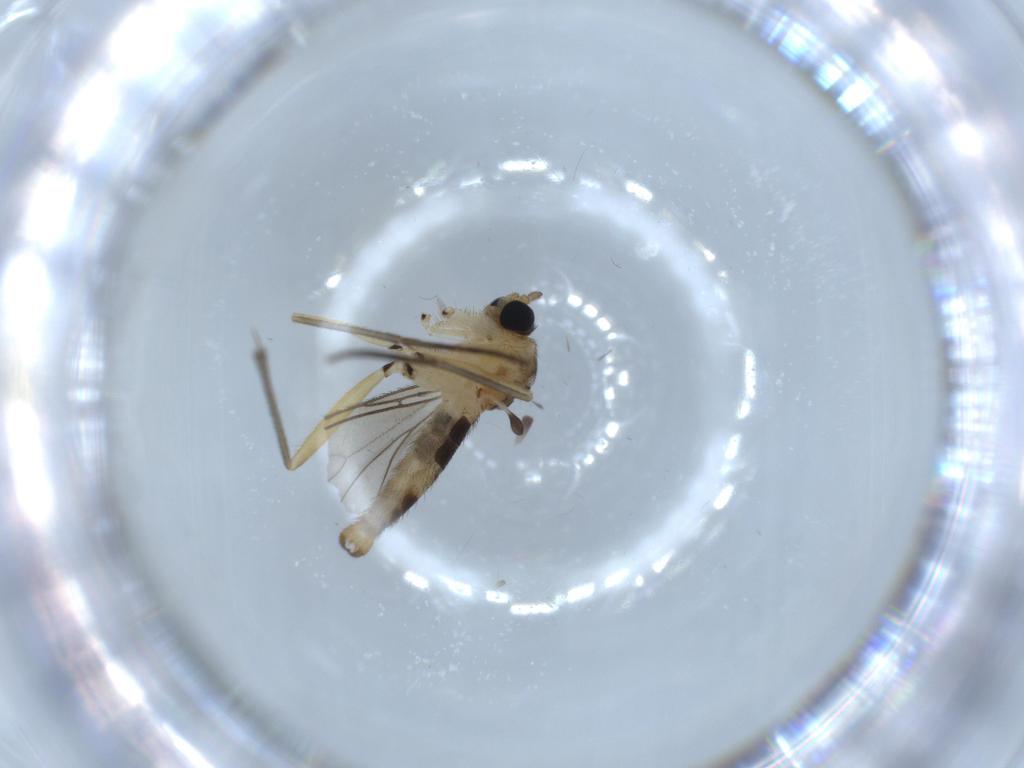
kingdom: Animalia
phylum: Arthropoda
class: Insecta
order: Diptera
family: Sciaridae
